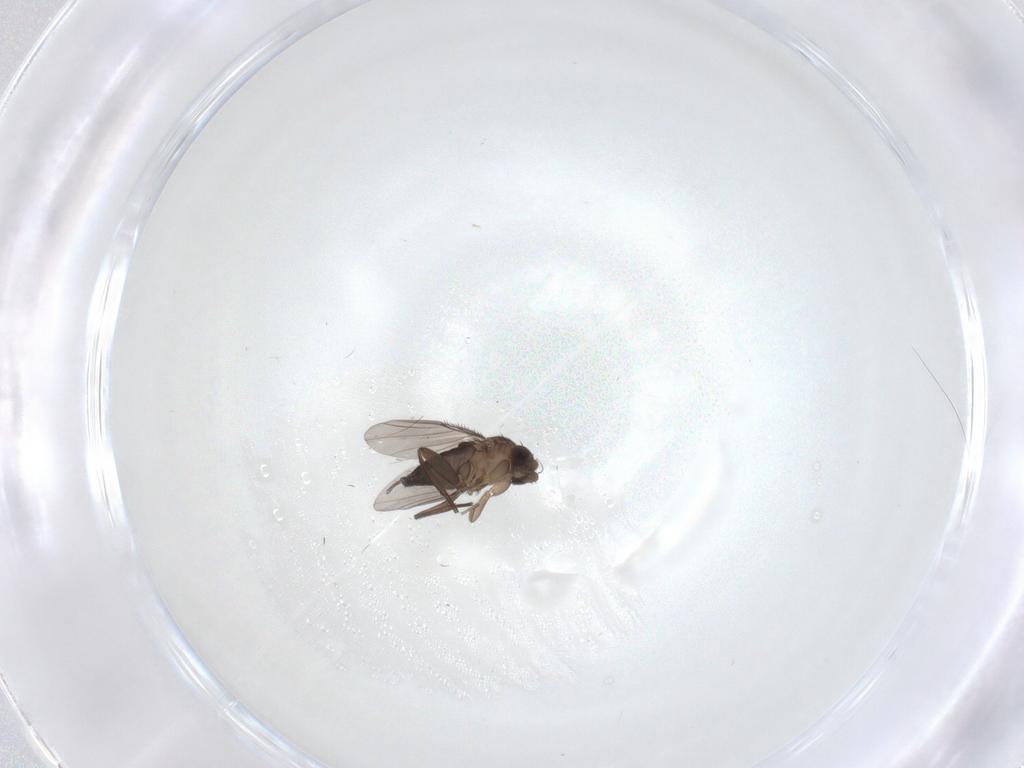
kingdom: Animalia
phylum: Arthropoda
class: Insecta
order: Diptera
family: Phoridae
